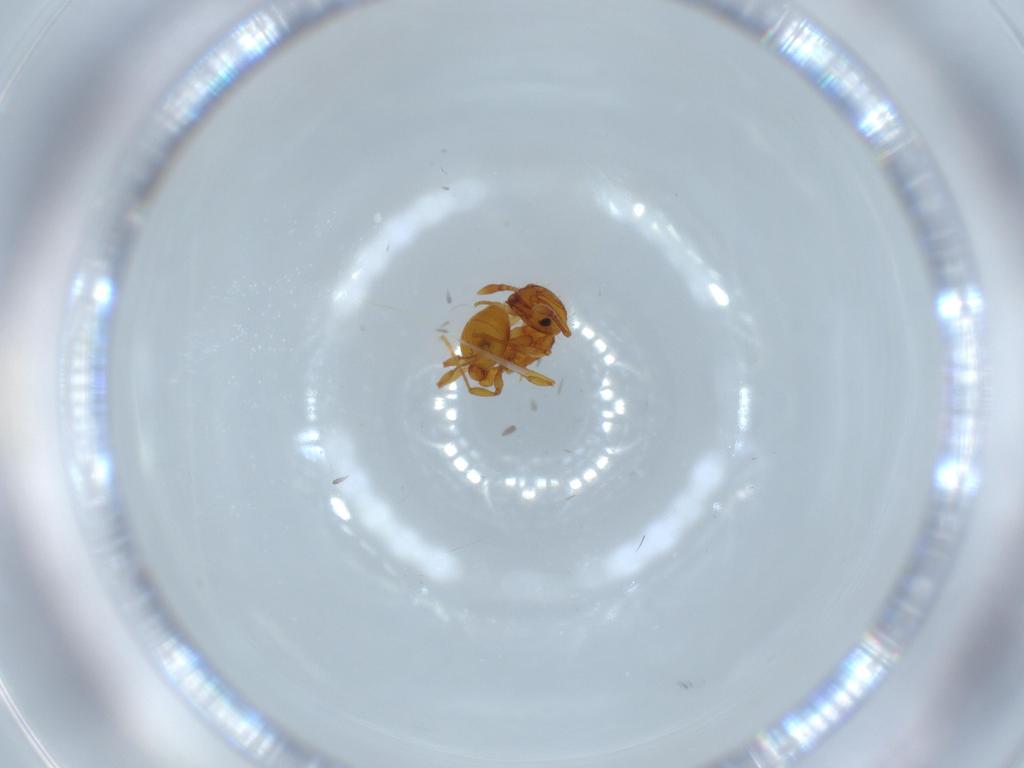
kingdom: Animalia
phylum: Arthropoda
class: Insecta
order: Hymenoptera
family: Formicidae
